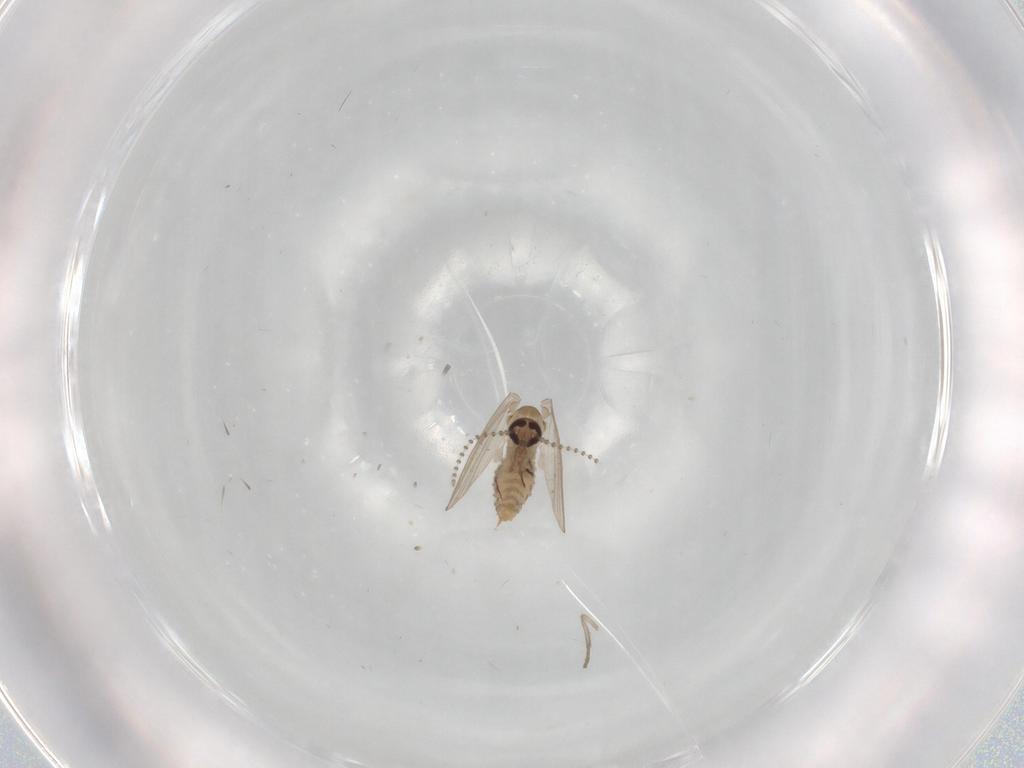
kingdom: Animalia
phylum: Arthropoda
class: Insecta
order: Diptera
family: Psychodidae
